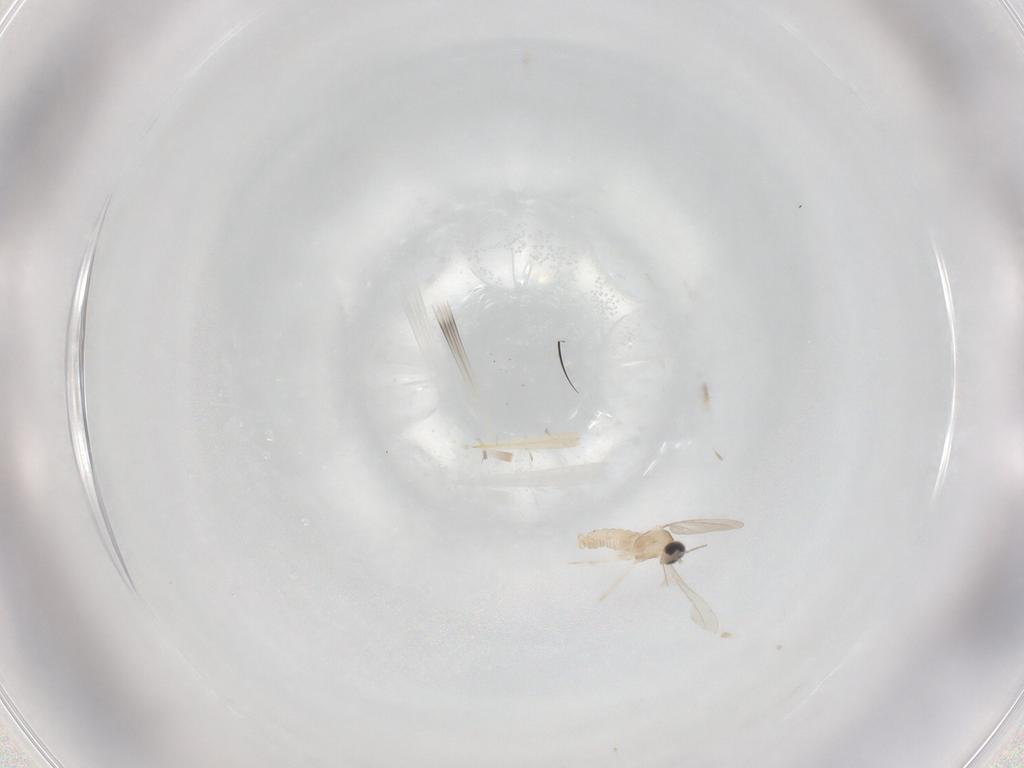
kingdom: Animalia
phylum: Arthropoda
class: Insecta
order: Diptera
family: Cecidomyiidae
